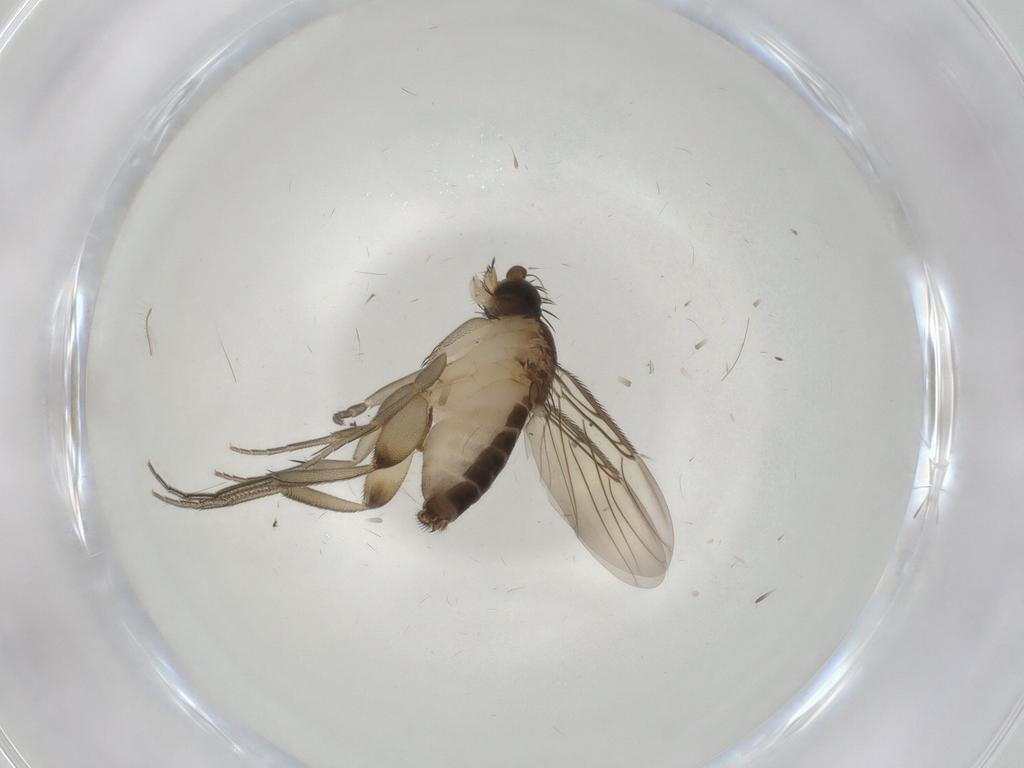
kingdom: Animalia
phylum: Arthropoda
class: Insecta
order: Diptera
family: Phoridae
